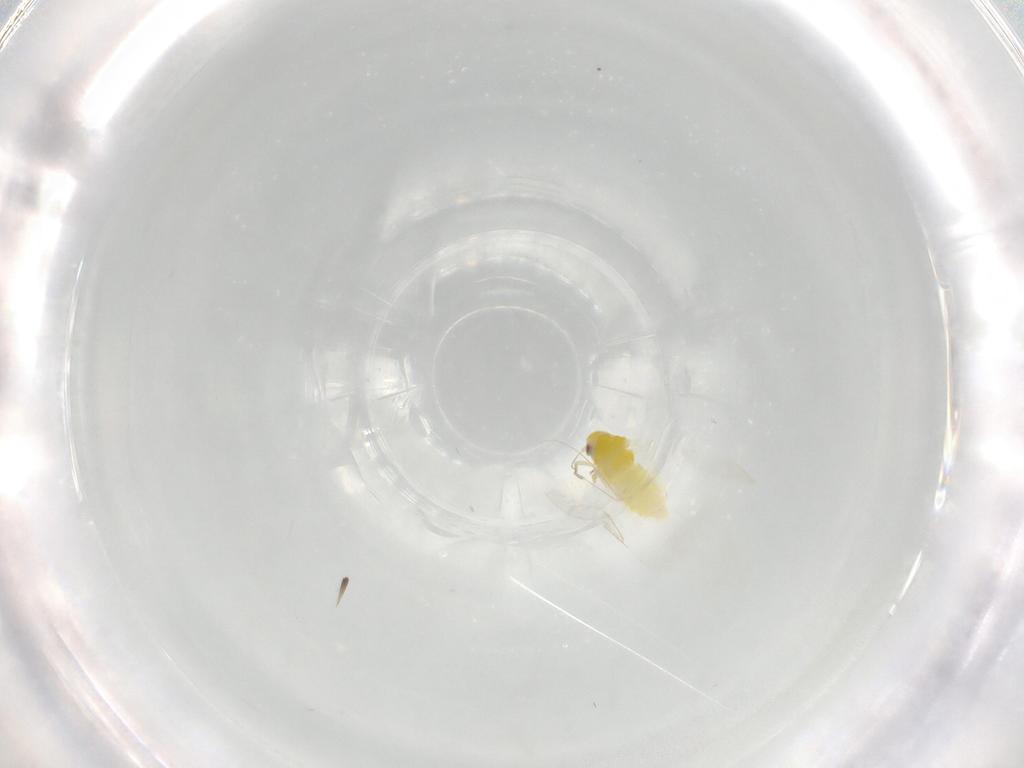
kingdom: Animalia
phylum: Arthropoda
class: Insecta
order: Hemiptera
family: Aleyrodidae
